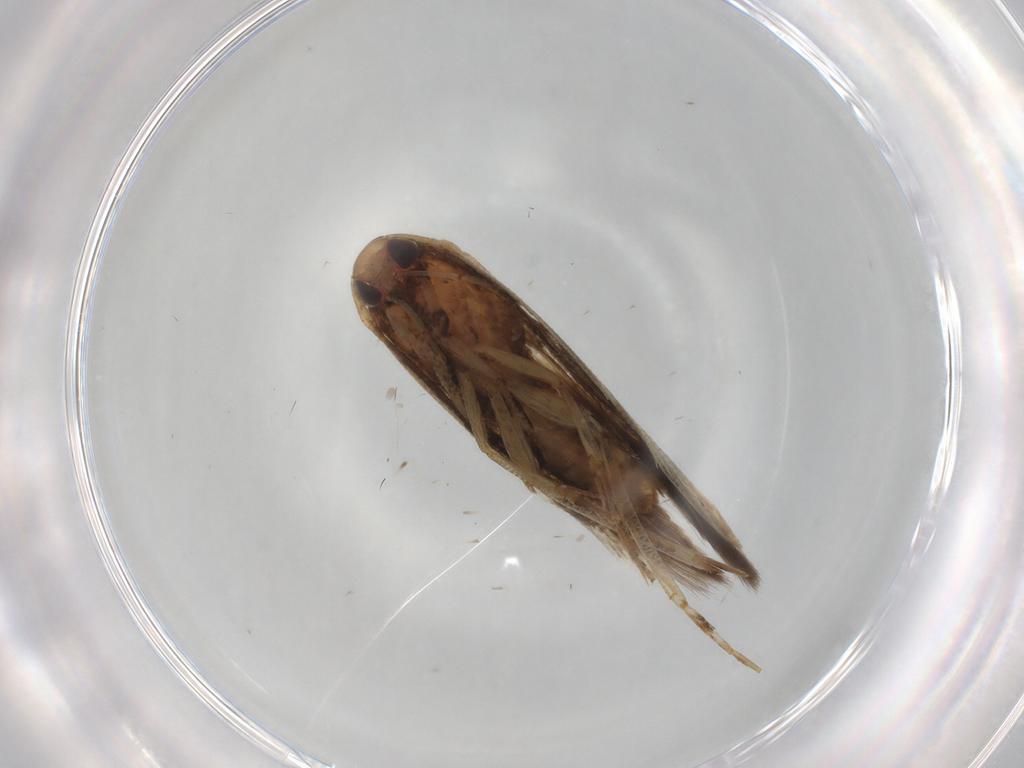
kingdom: Animalia
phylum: Arthropoda
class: Insecta
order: Lepidoptera
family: Cosmopterigidae
